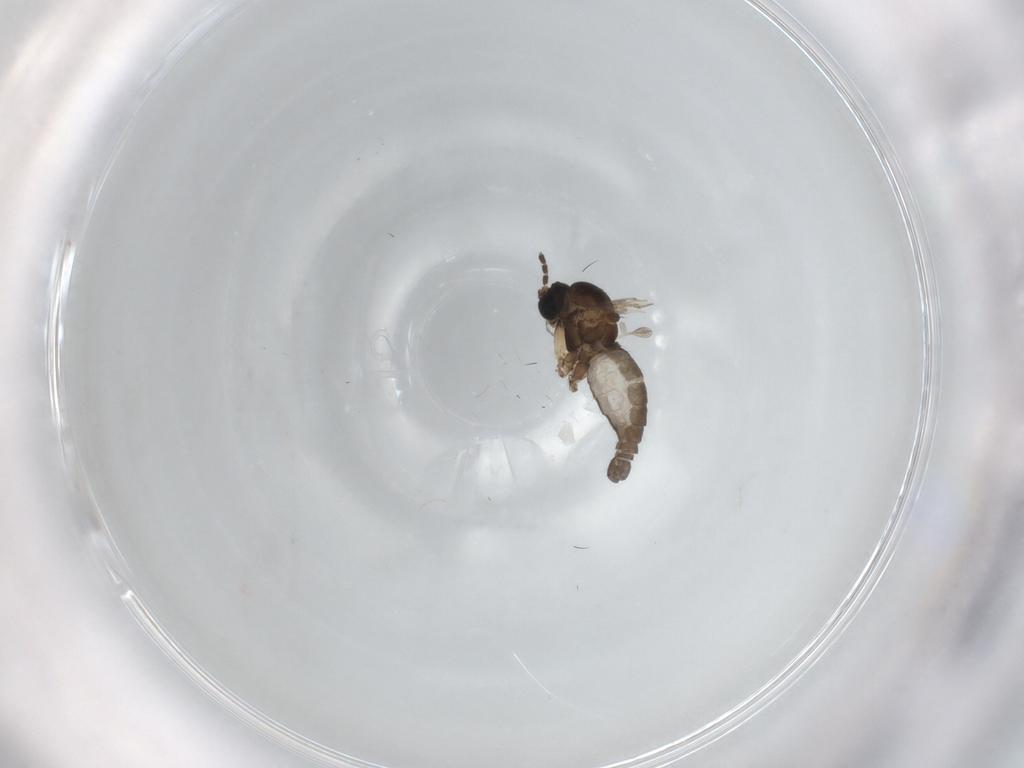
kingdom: Animalia
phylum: Arthropoda
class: Insecta
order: Diptera
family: Sciaridae
